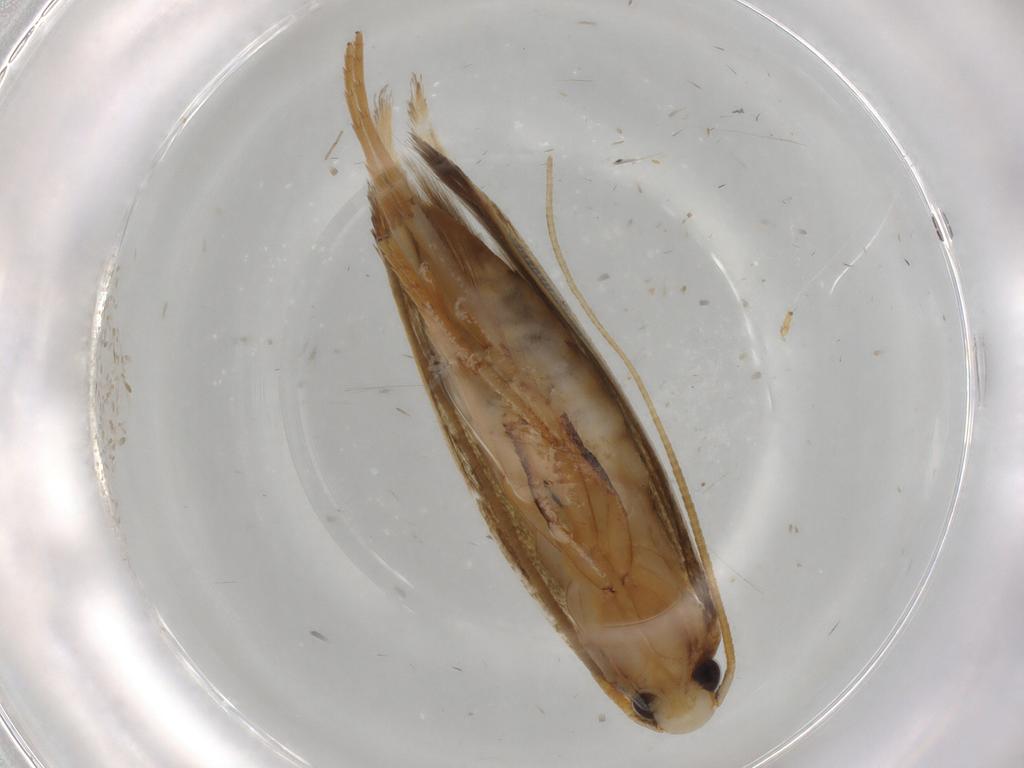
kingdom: Animalia
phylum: Arthropoda
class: Insecta
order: Lepidoptera
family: Tineidae
